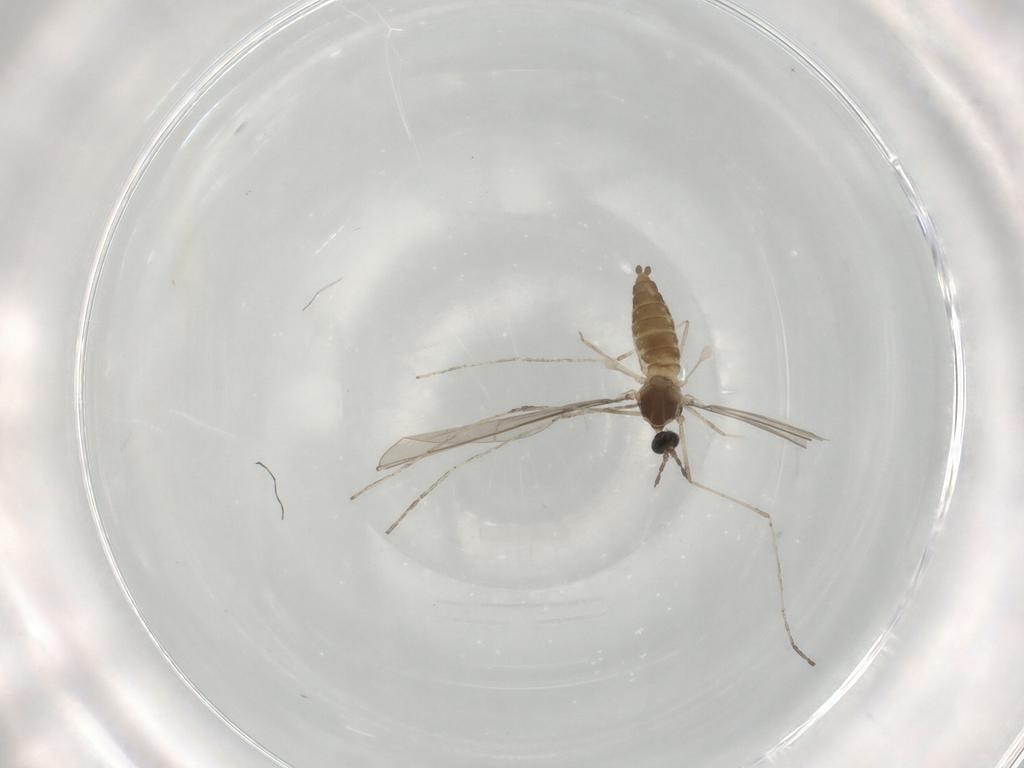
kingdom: Animalia
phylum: Arthropoda
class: Insecta
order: Diptera
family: Cecidomyiidae
